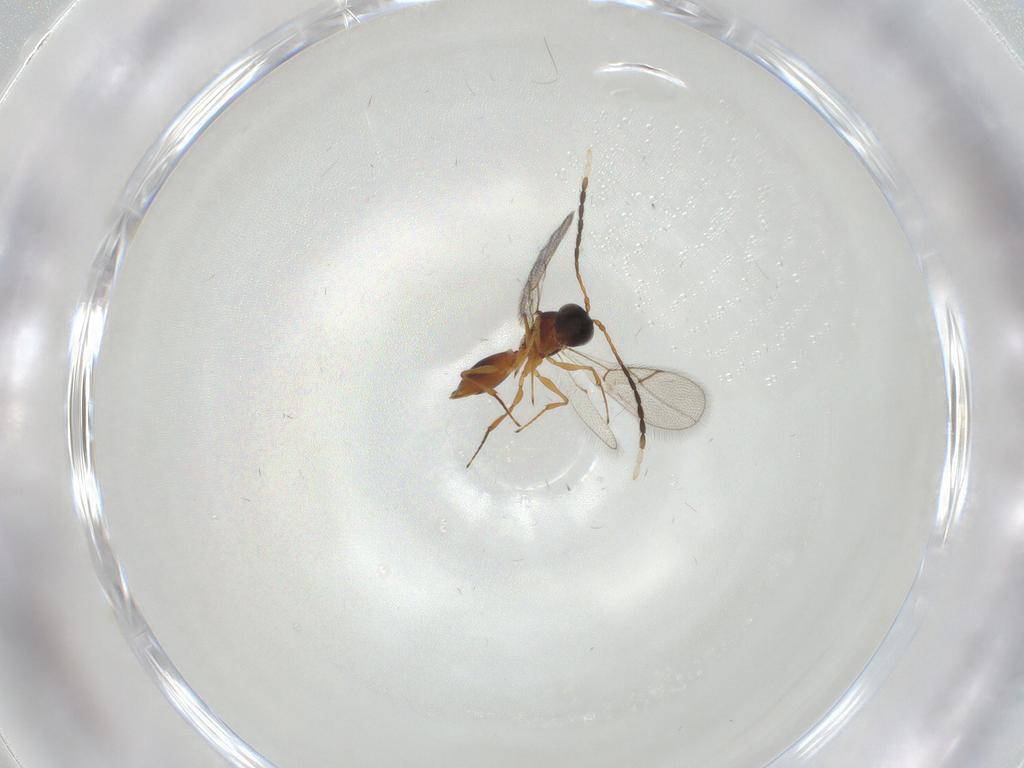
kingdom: Animalia
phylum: Arthropoda
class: Insecta
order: Hymenoptera
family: Figitidae
